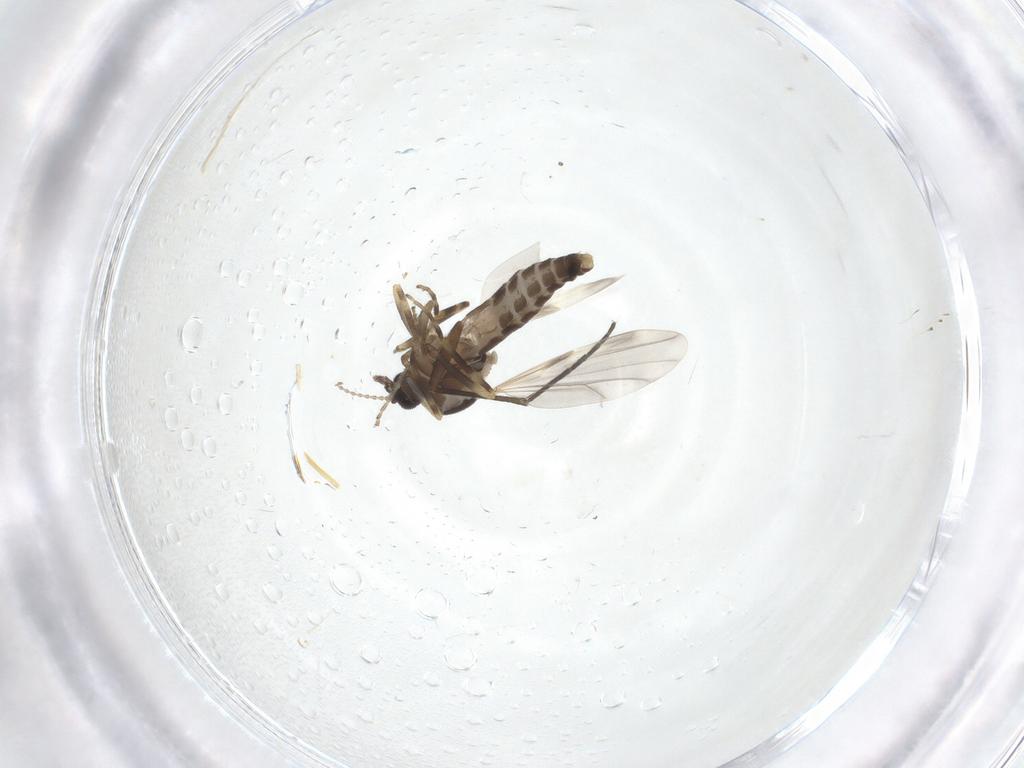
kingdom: Animalia
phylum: Arthropoda
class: Insecta
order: Diptera
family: Ceratopogonidae
